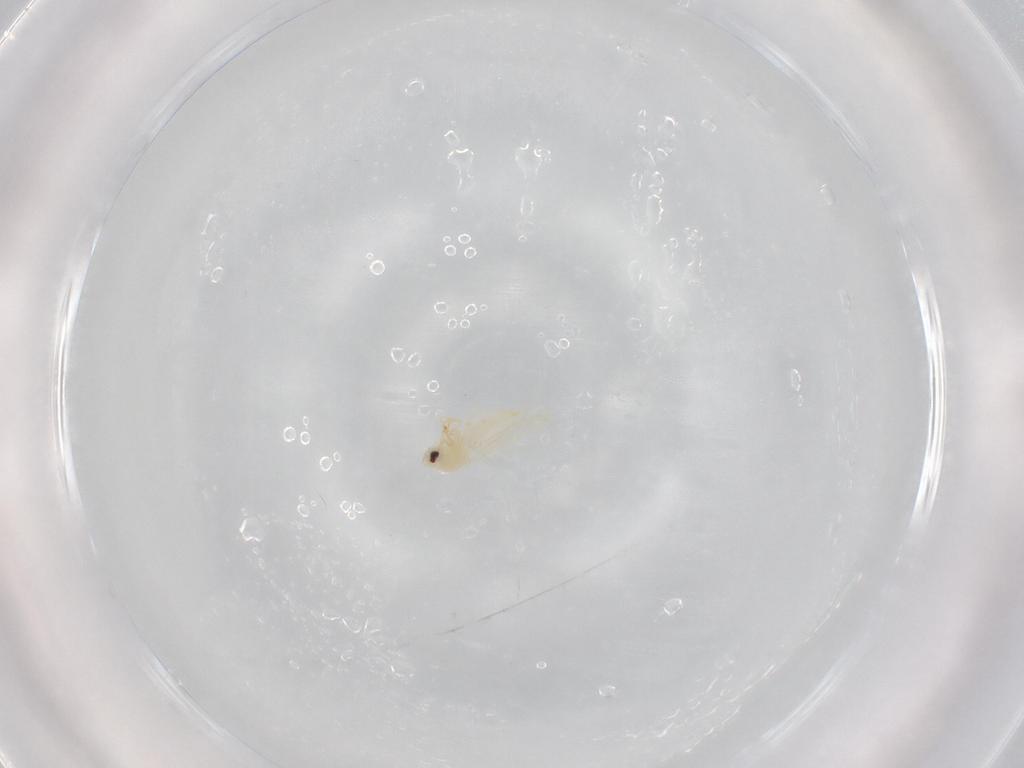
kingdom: Animalia
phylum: Arthropoda
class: Insecta
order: Hemiptera
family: Aleyrodidae
